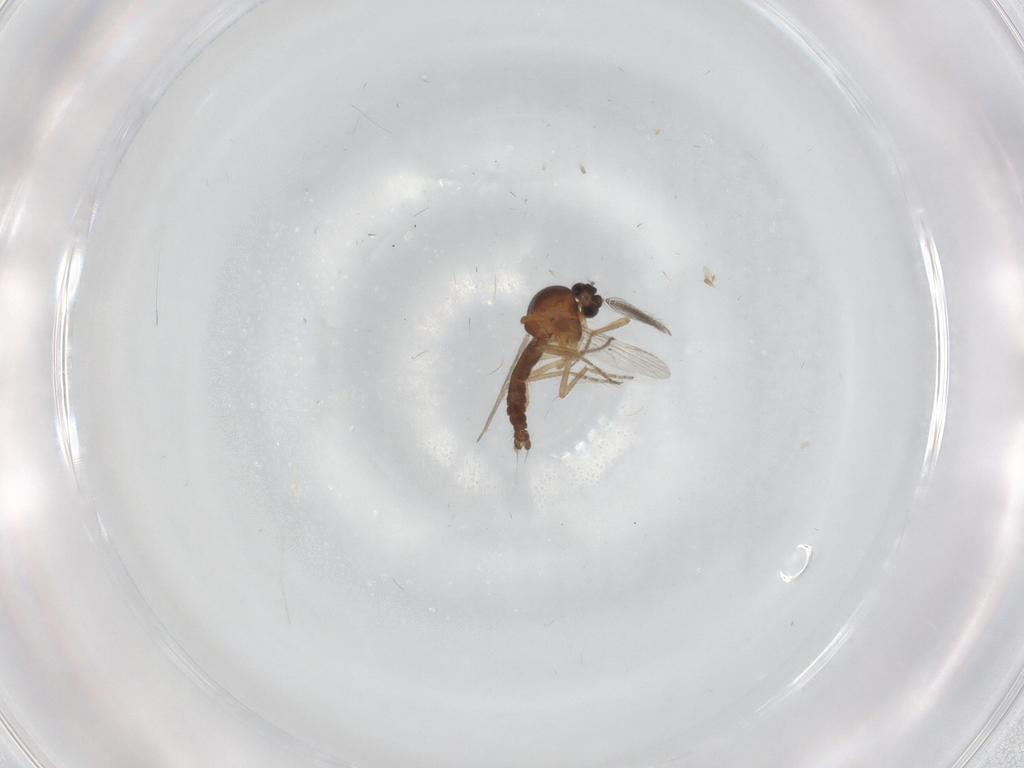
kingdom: Animalia
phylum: Arthropoda
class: Insecta
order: Diptera
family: Ceratopogonidae
